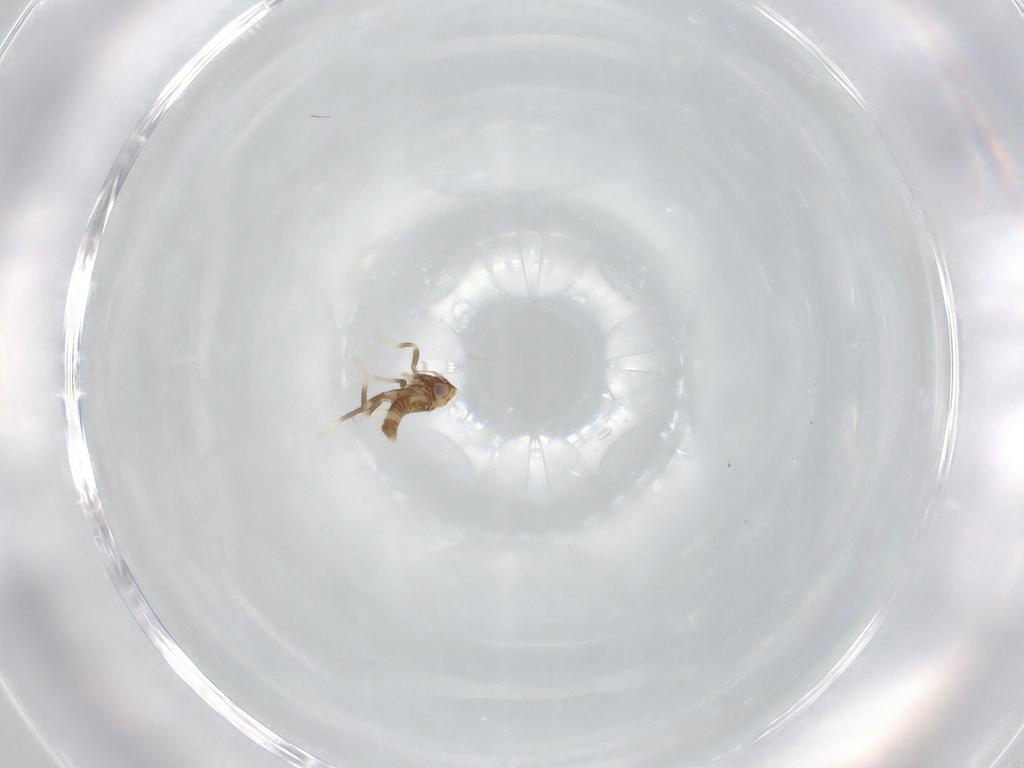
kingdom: Animalia
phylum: Arthropoda
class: Insecta
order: Hemiptera
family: Cicadellidae
